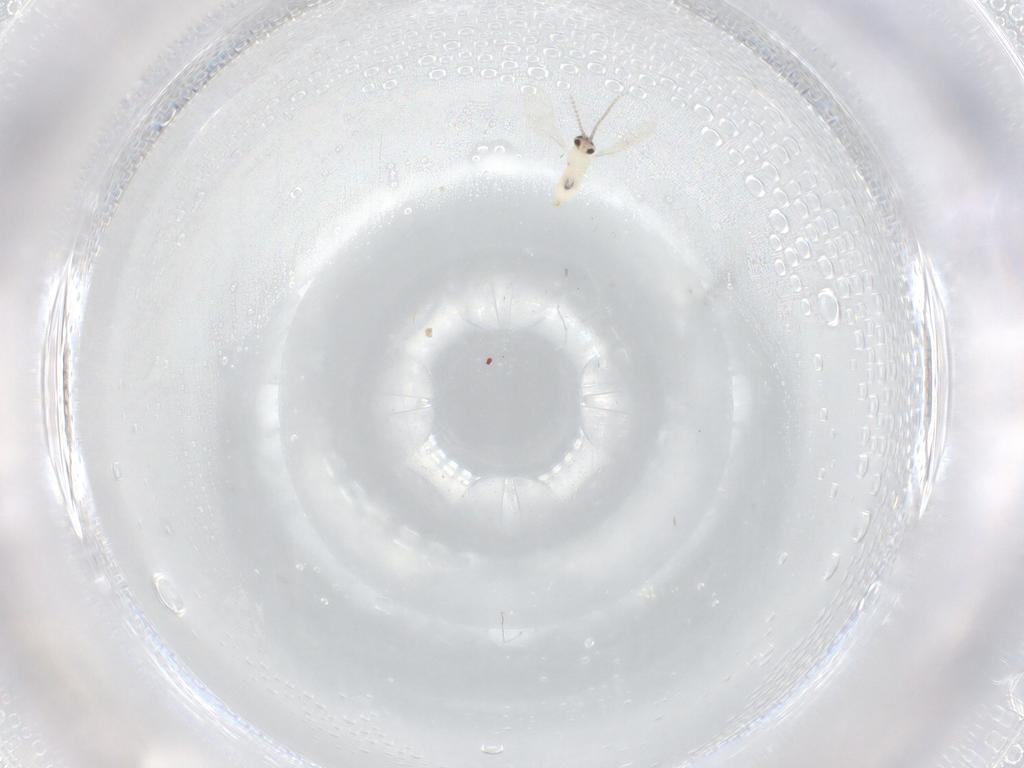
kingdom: Animalia
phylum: Arthropoda
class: Insecta
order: Diptera
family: Cecidomyiidae
